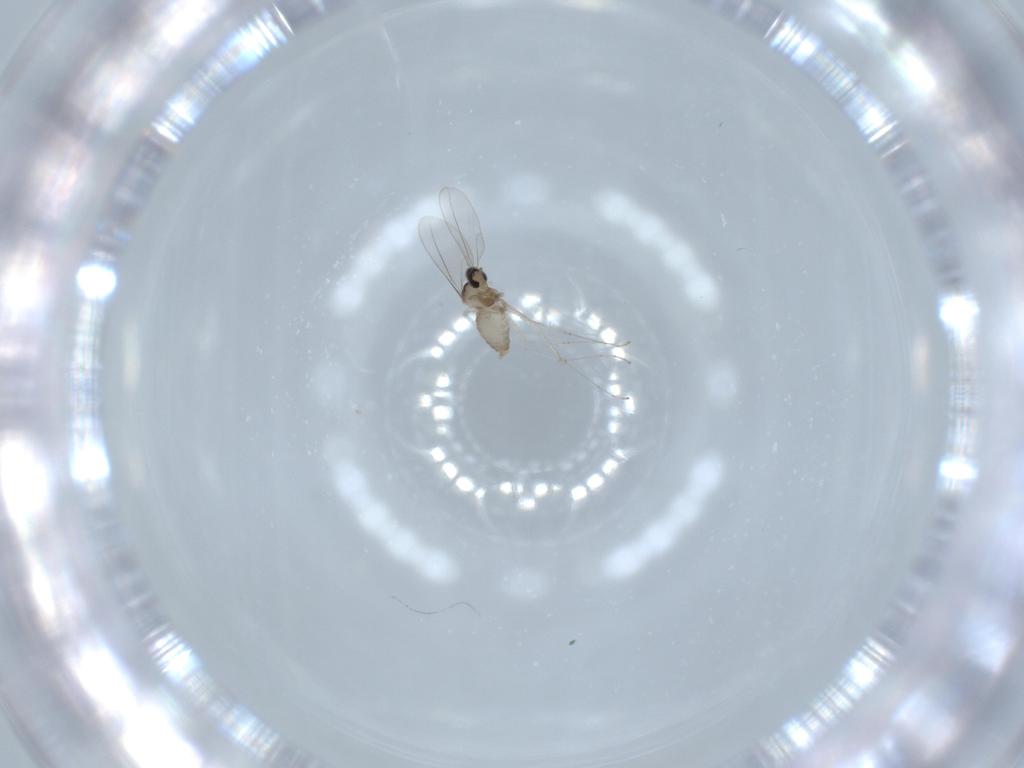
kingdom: Animalia
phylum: Arthropoda
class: Insecta
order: Diptera
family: Cecidomyiidae
